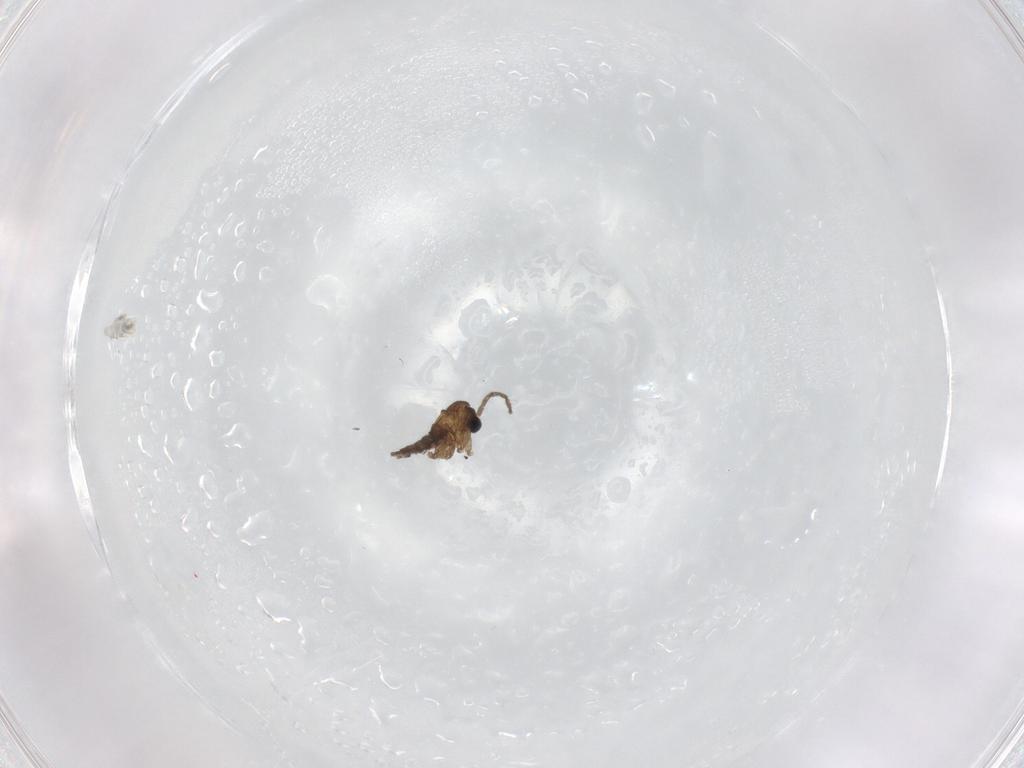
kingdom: Animalia
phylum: Arthropoda
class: Insecta
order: Diptera
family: Sciaridae
